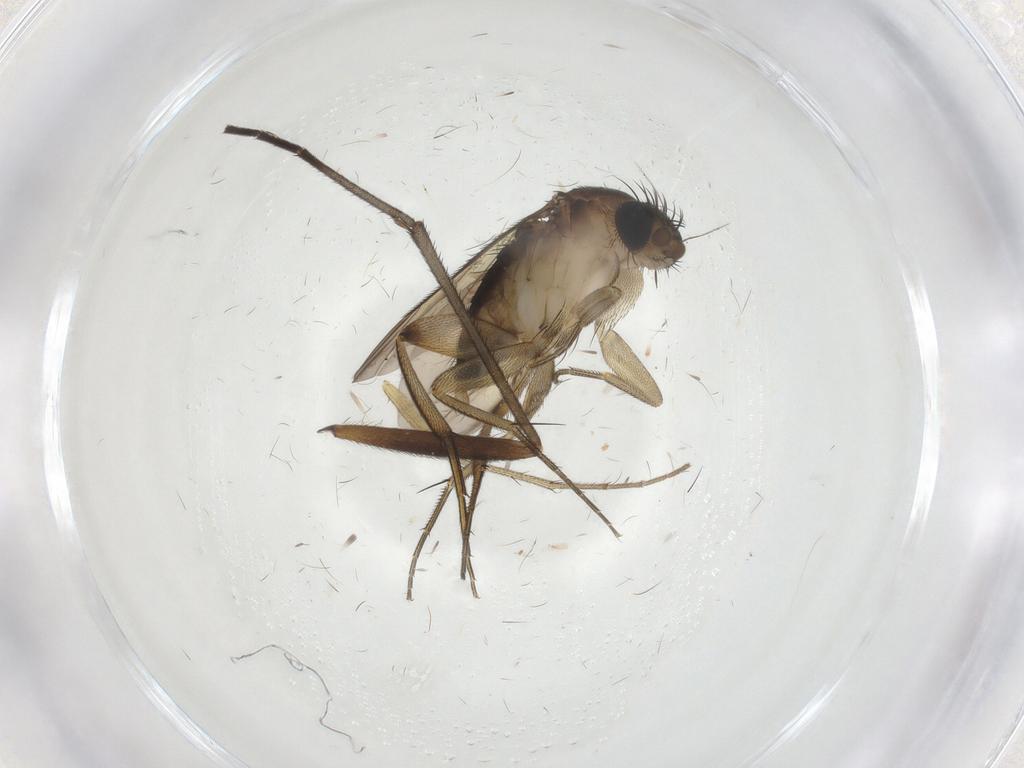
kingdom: Animalia
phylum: Arthropoda
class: Insecta
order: Diptera
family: Phoridae
